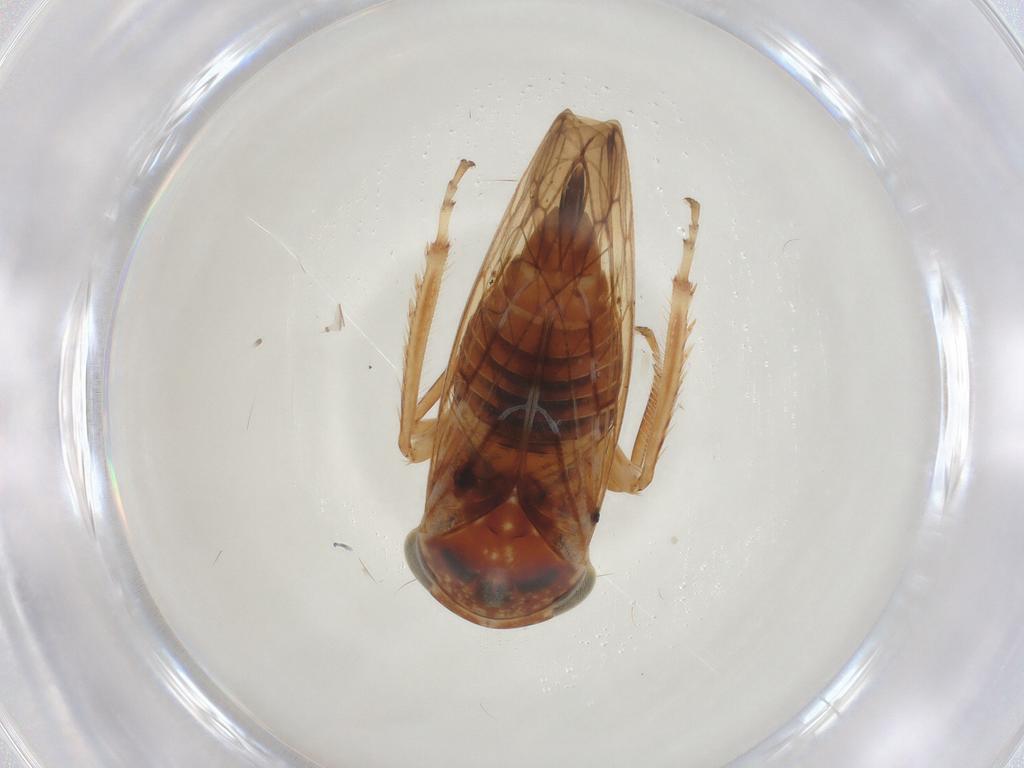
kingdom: Animalia
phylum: Arthropoda
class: Insecta
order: Hemiptera
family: Cicadellidae
